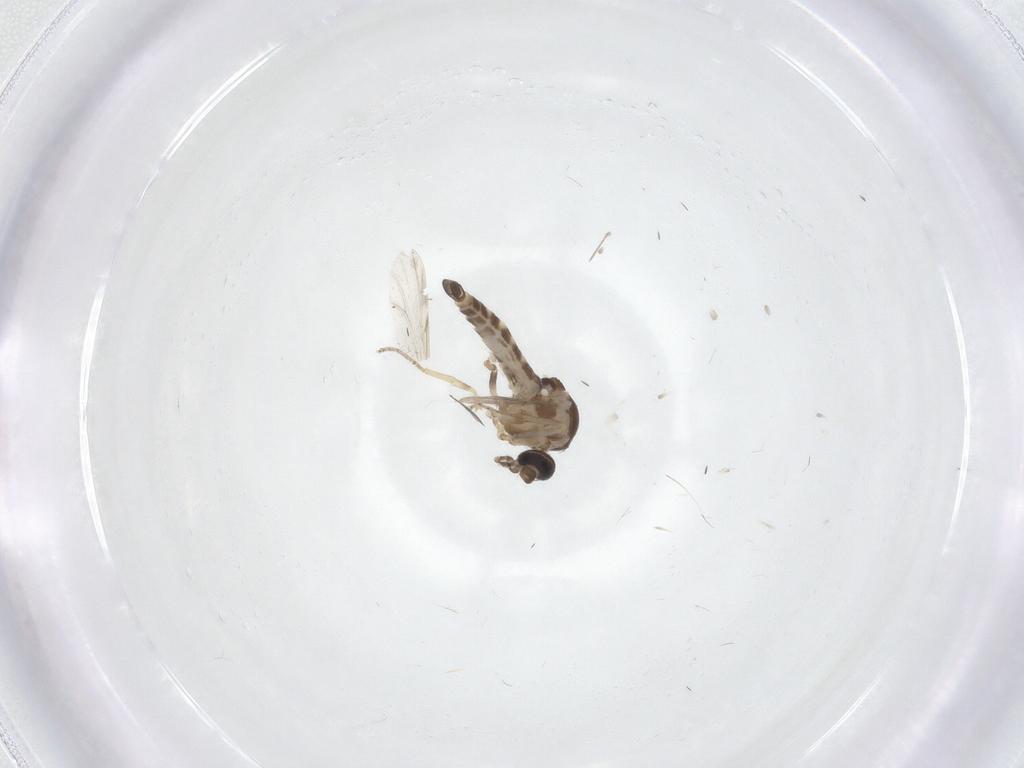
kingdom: Animalia
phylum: Arthropoda
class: Insecta
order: Diptera
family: Ceratopogonidae
